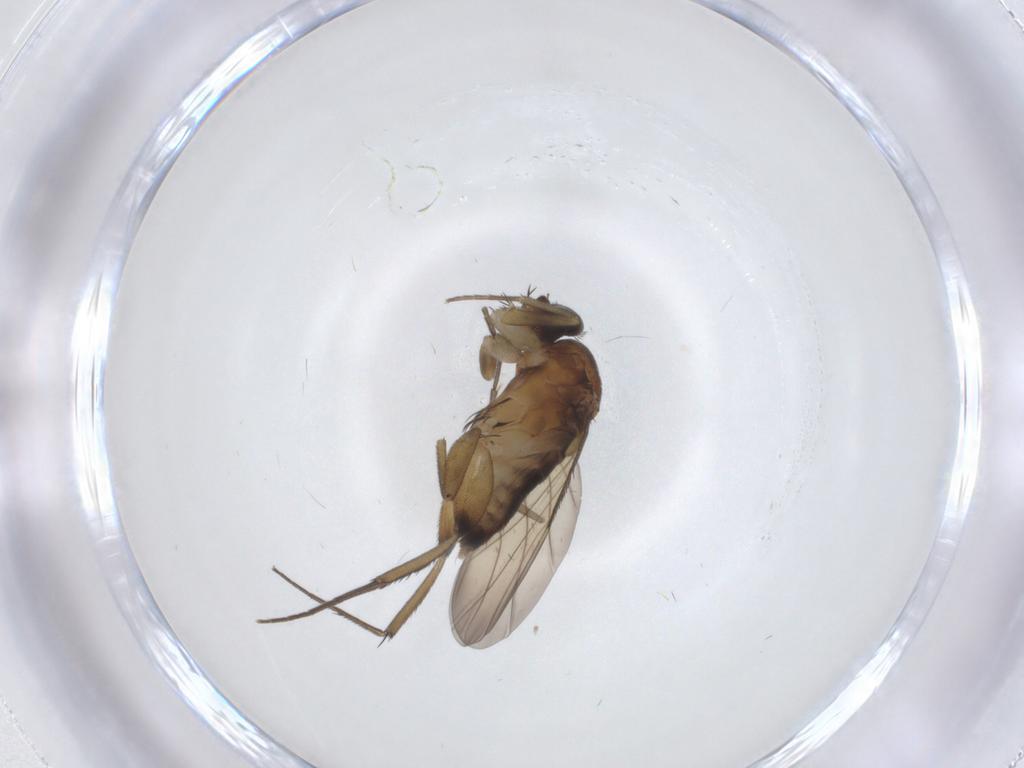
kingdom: Animalia
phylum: Arthropoda
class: Insecta
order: Diptera
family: Phoridae
